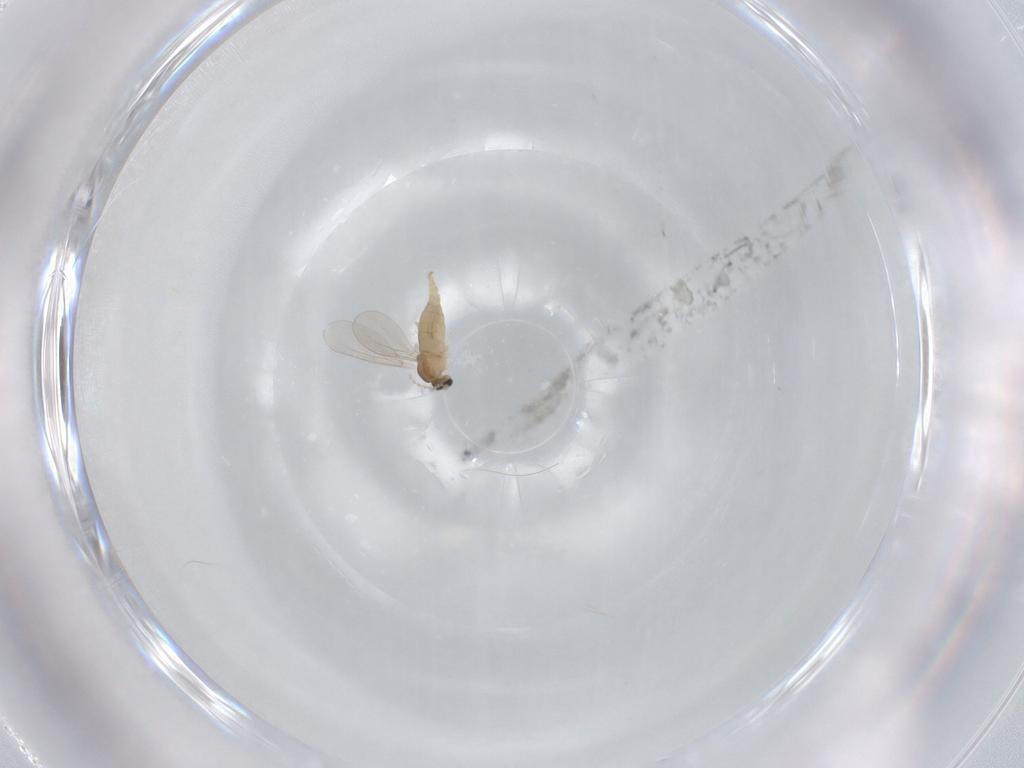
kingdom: Animalia
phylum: Arthropoda
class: Insecta
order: Diptera
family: Cecidomyiidae
